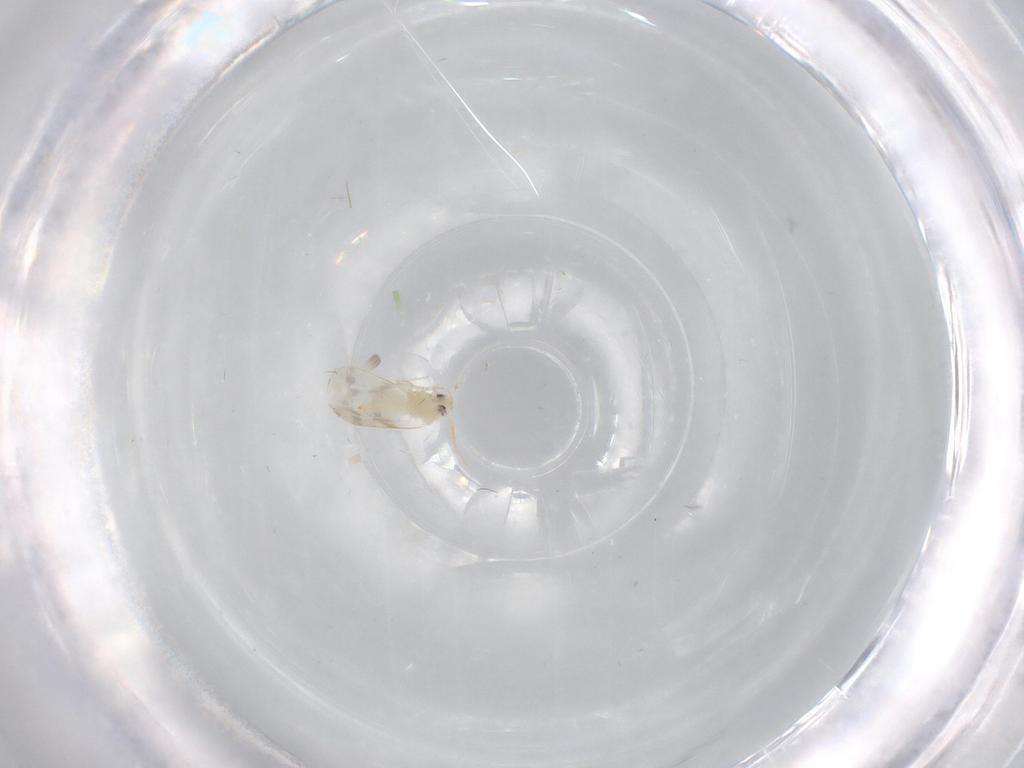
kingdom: Animalia
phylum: Arthropoda
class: Insecta
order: Hemiptera
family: Aleyrodidae
